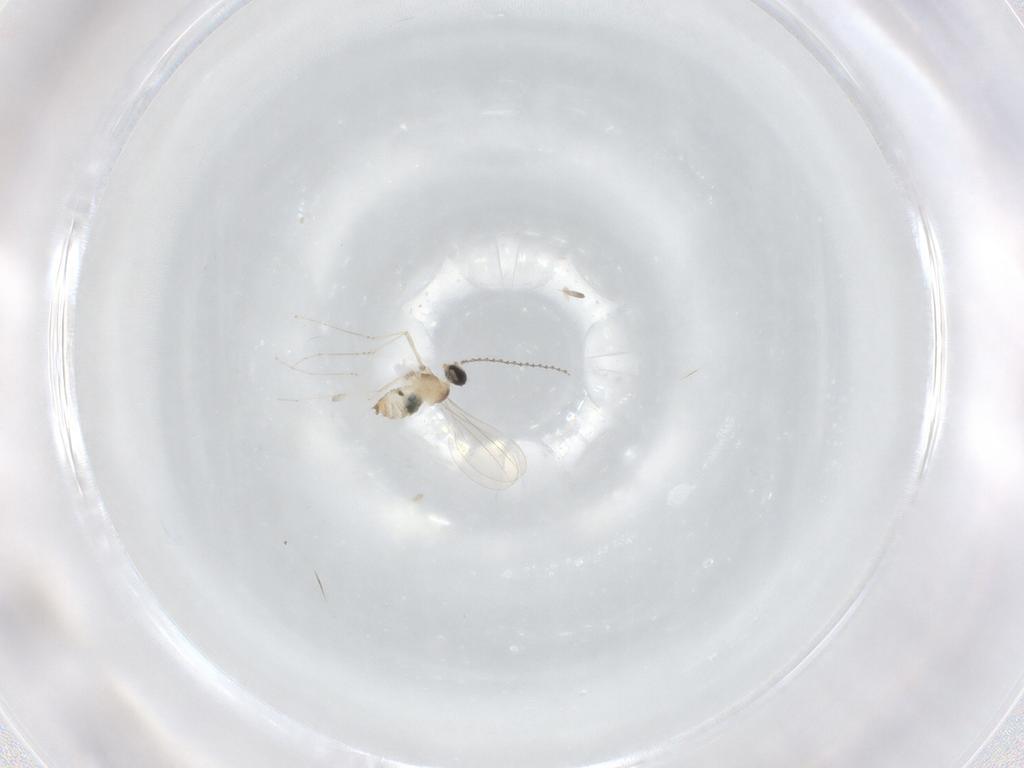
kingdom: Animalia
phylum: Arthropoda
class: Insecta
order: Diptera
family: Cecidomyiidae
